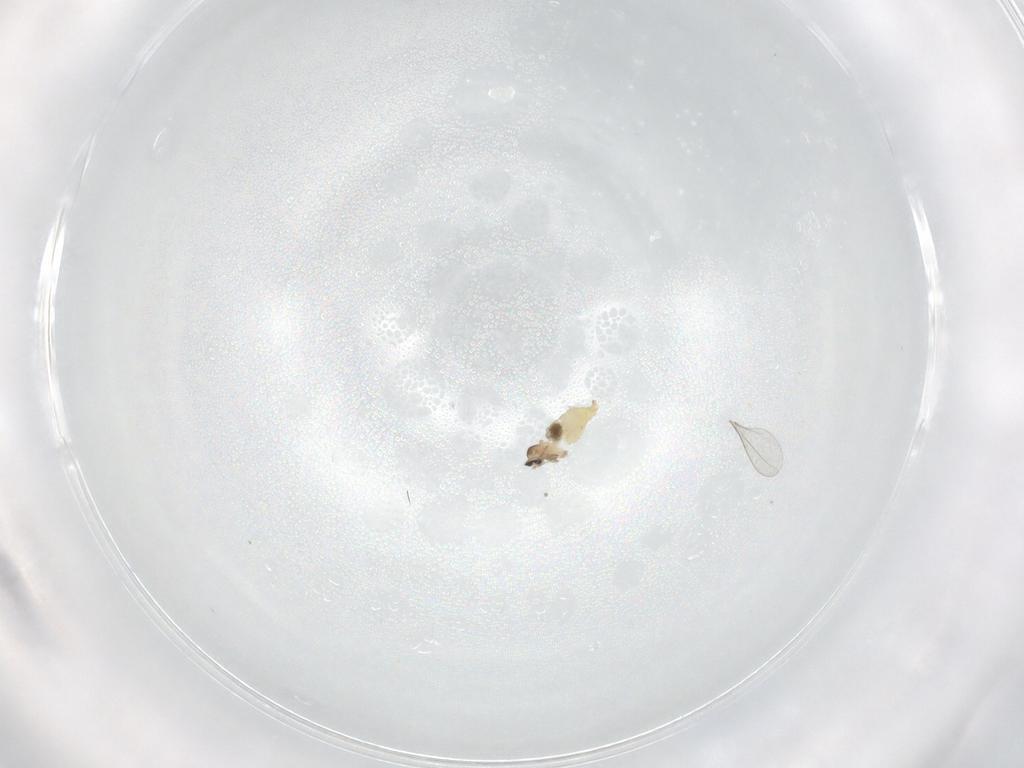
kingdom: Animalia
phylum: Arthropoda
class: Insecta
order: Diptera
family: Cecidomyiidae
